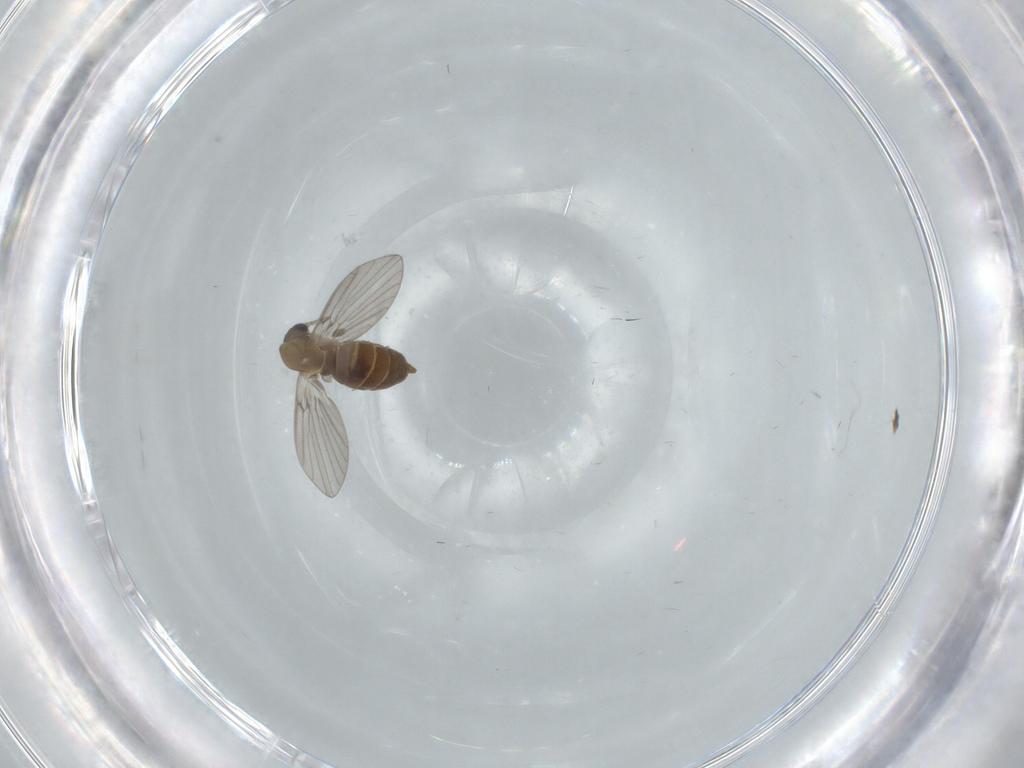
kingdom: Animalia
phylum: Arthropoda
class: Insecta
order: Diptera
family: Psychodidae
